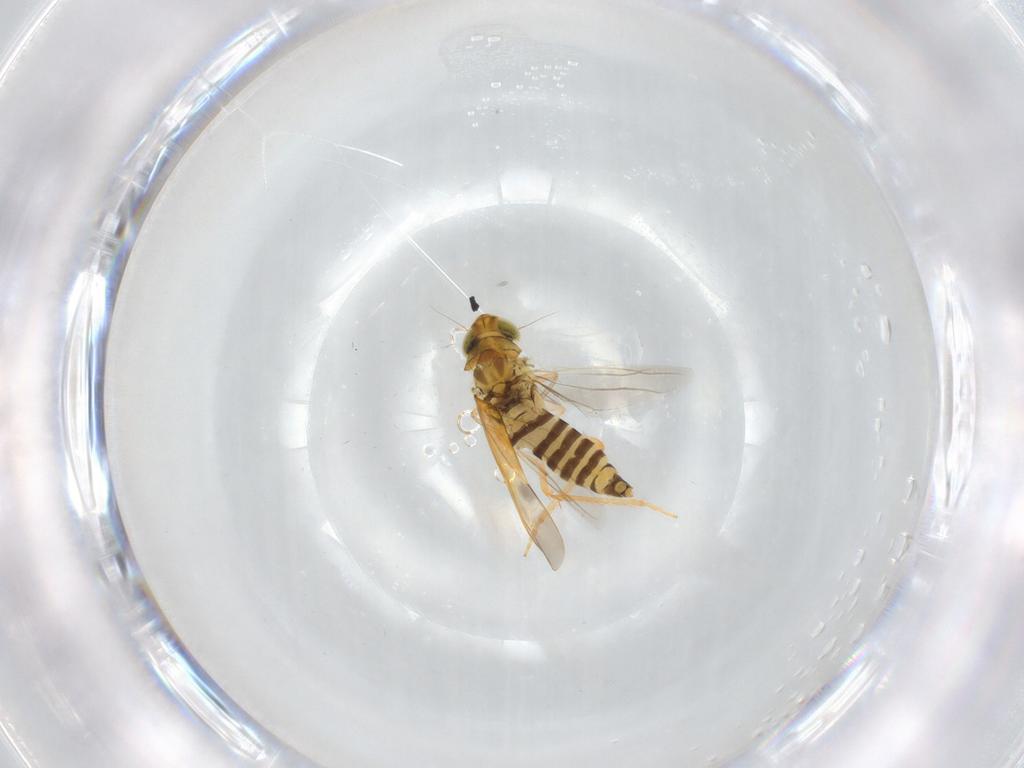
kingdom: Animalia
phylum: Arthropoda
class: Insecta
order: Hemiptera
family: Cicadellidae
